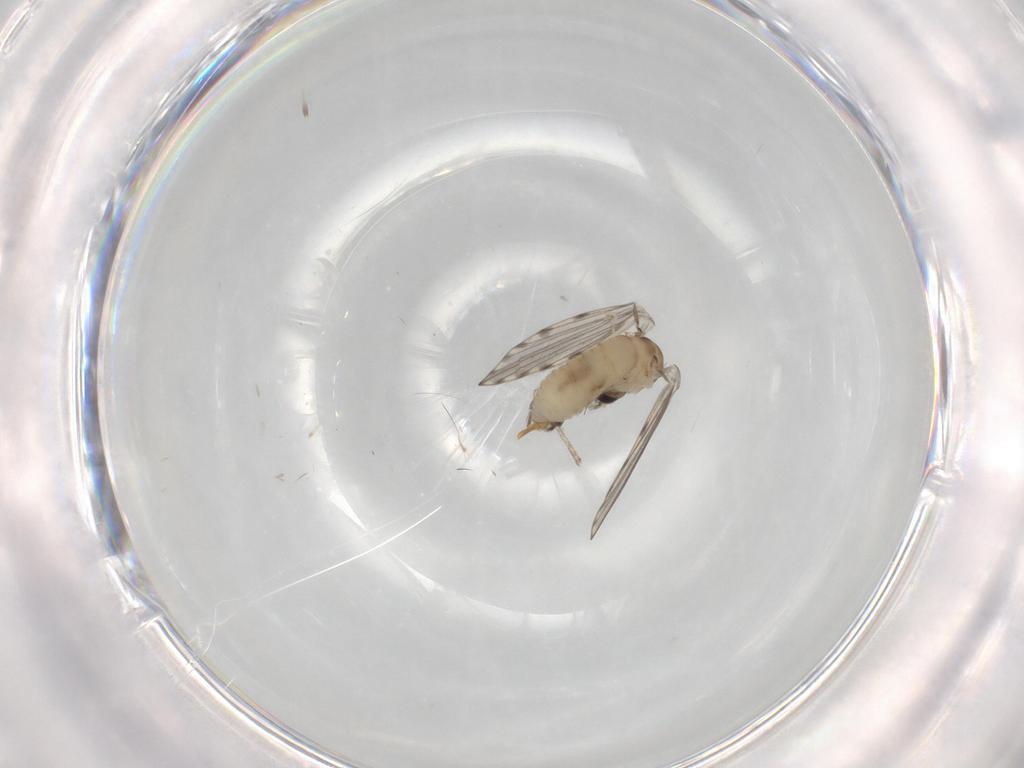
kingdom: Animalia
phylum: Arthropoda
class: Insecta
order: Diptera
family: Psychodidae
